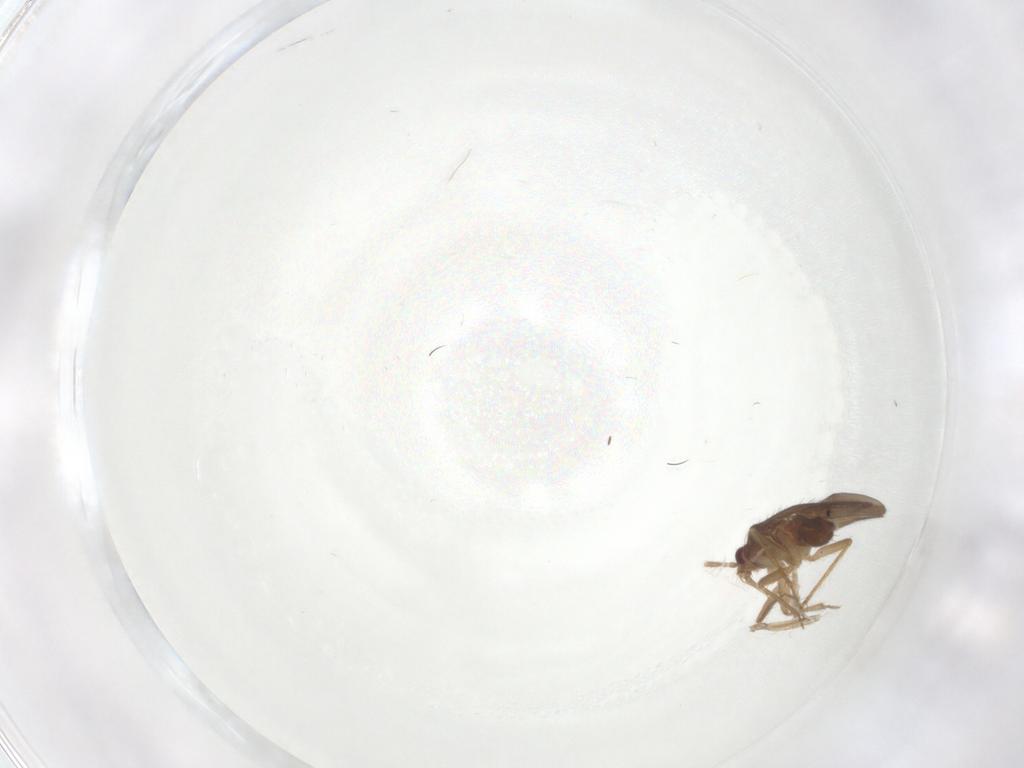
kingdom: Animalia
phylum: Arthropoda
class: Insecta
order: Hemiptera
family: Ceratocombidae
